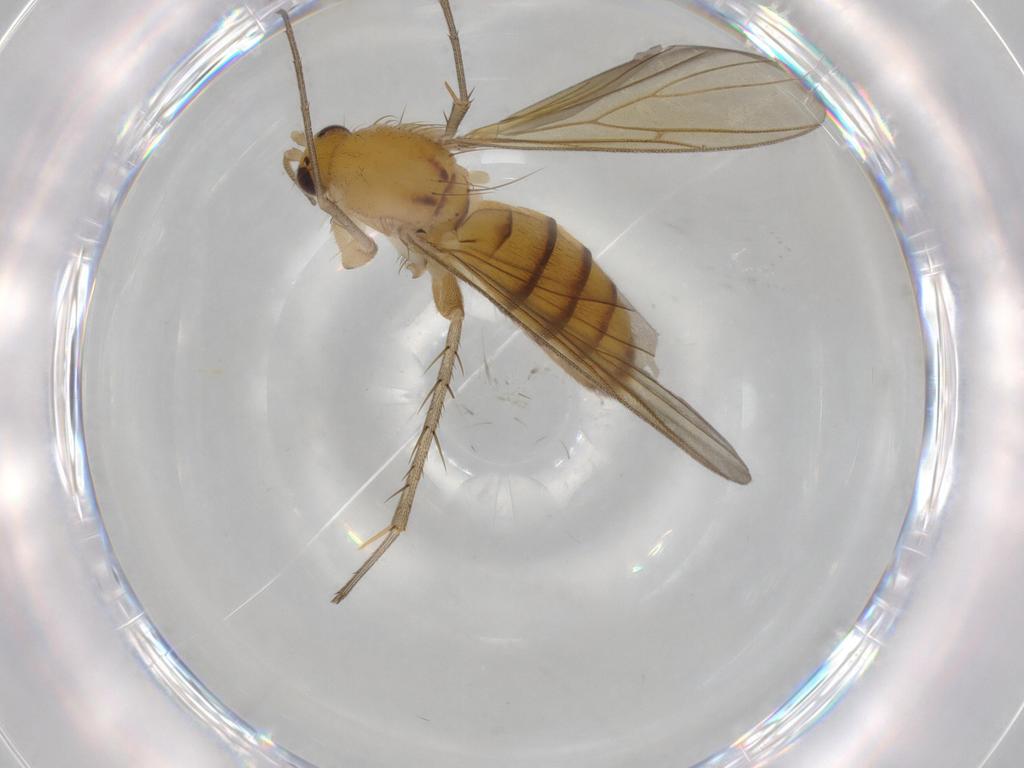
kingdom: Animalia
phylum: Arthropoda
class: Insecta
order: Diptera
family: Mycetophilidae
